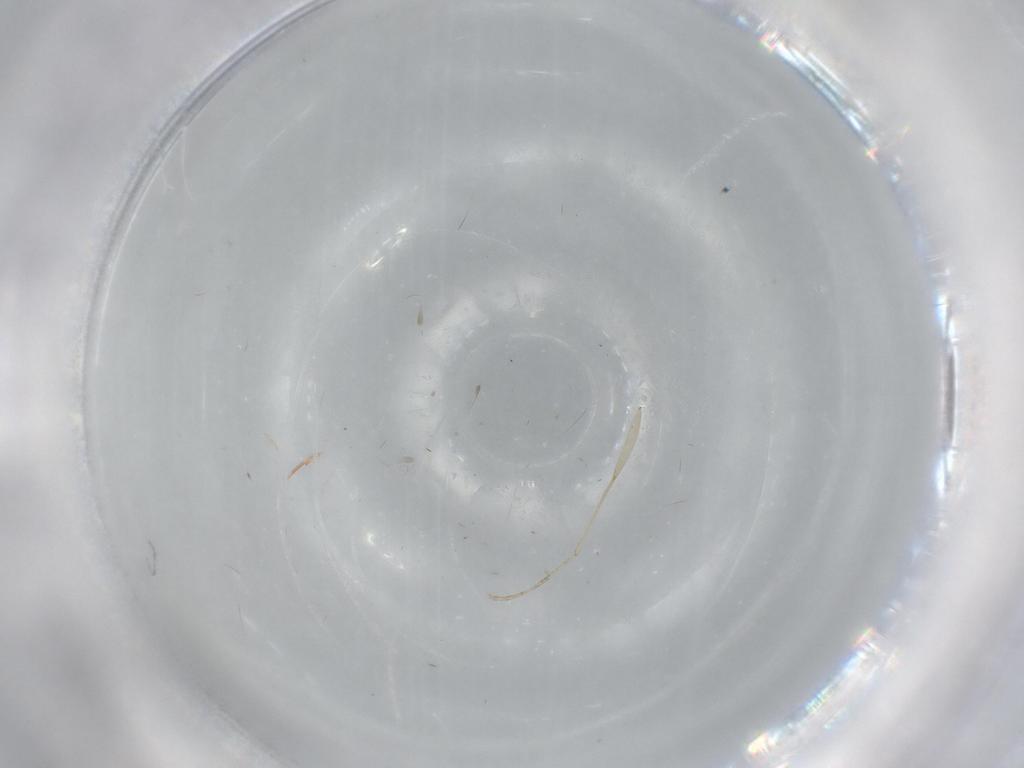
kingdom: Animalia
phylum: Arthropoda
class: Insecta
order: Diptera
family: Cecidomyiidae
